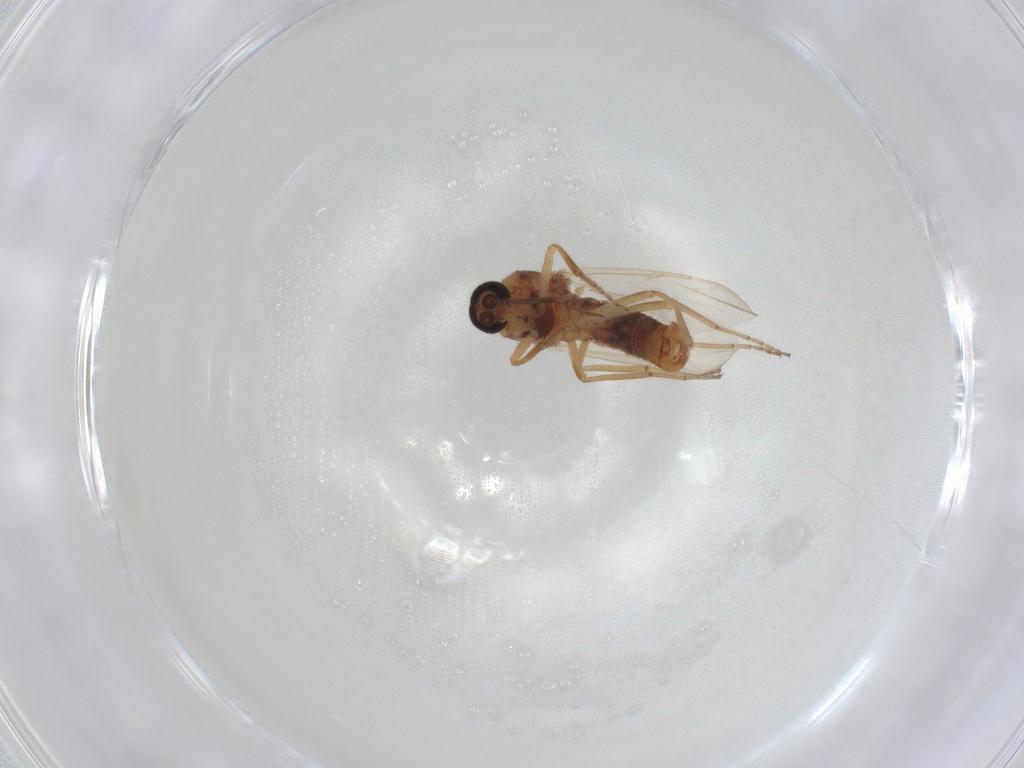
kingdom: Animalia
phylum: Arthropoda
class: Insecta
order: Diptera
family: Ceratopogonidae
